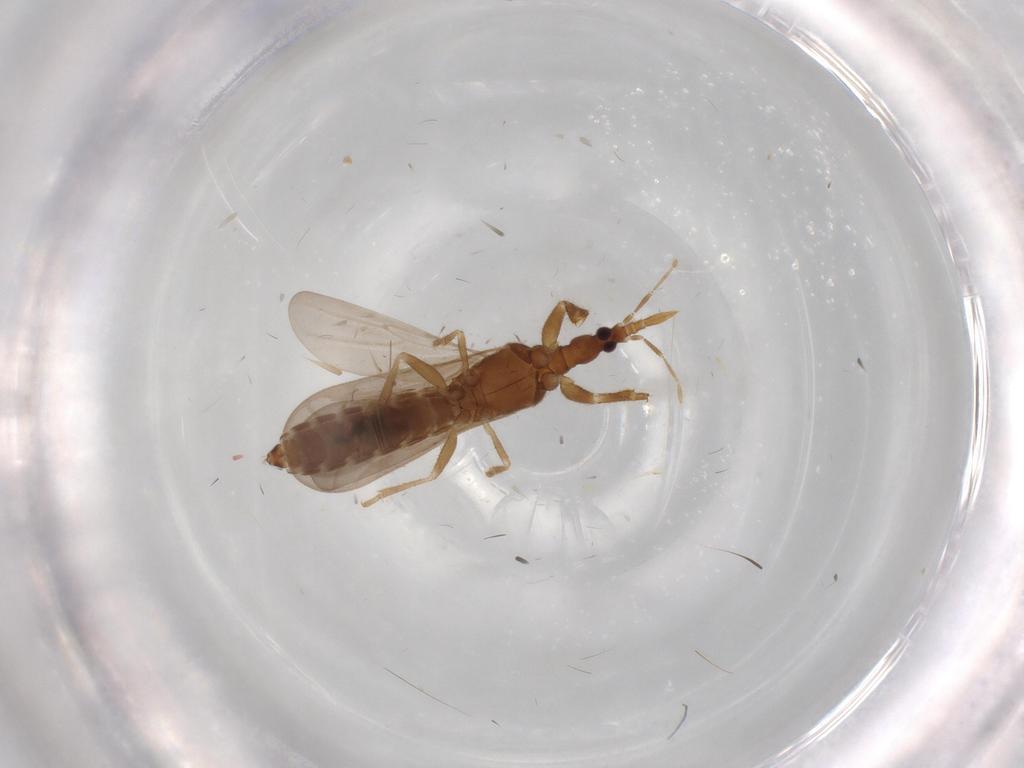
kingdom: Animalia
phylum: Arthropoda
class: Insecta
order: Hemiptera
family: Enicocephalidae
